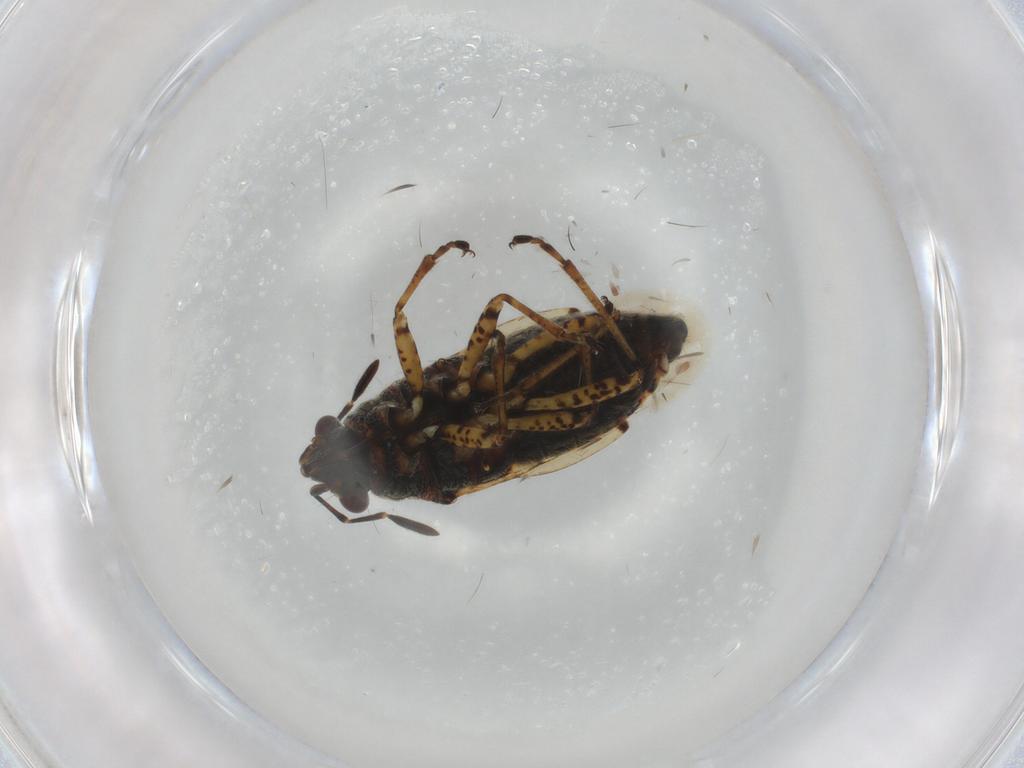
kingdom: Animalia
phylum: Arthropoda
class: Insecta
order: Hemiptera
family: Lygaeidae
